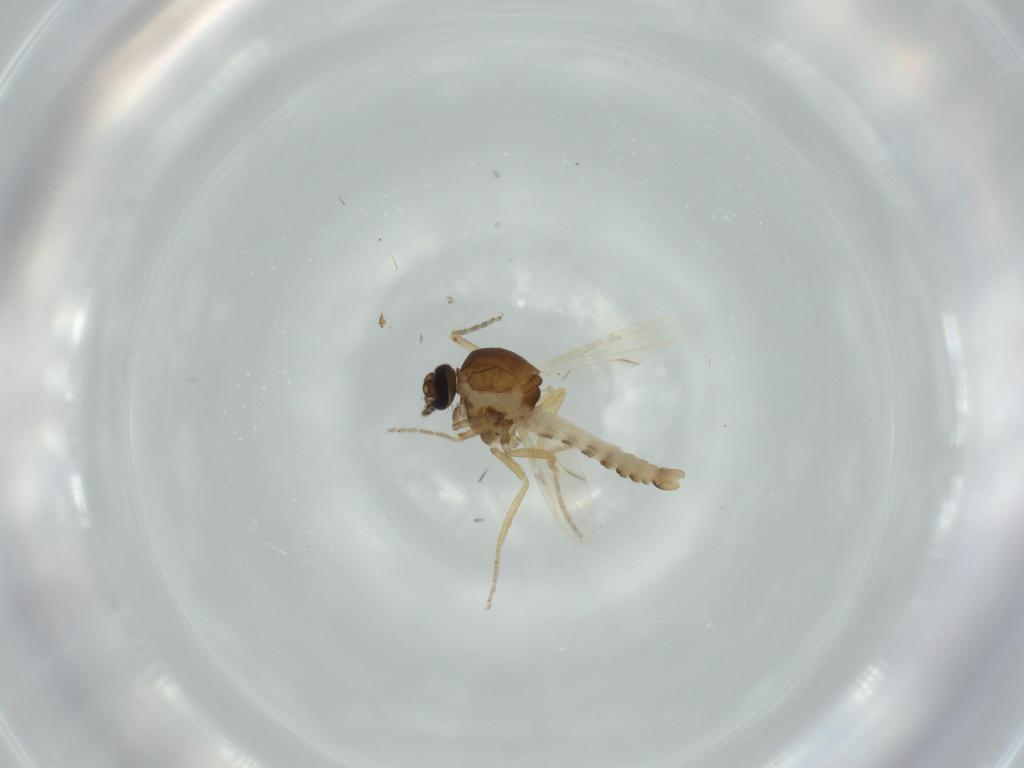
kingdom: Animalia
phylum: Arthropoda
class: Insecta
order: Diptera
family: Ceratopogonidae
